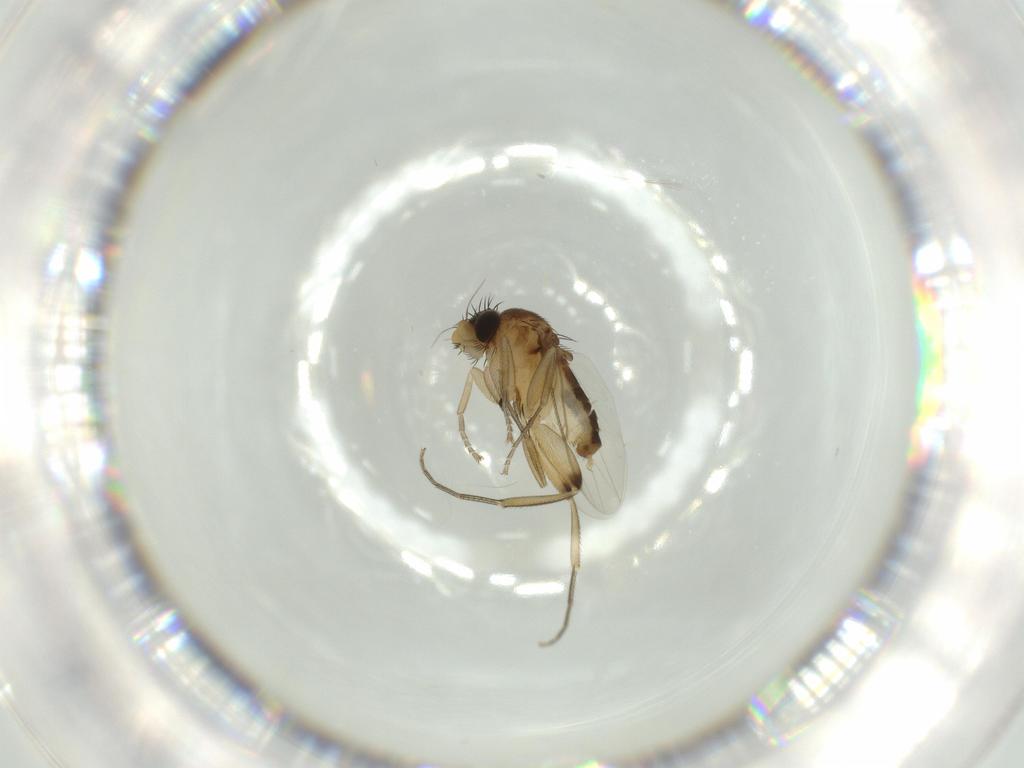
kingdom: Animalia
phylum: Arthropoda
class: Insecta
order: Diptera
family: Phoridae
